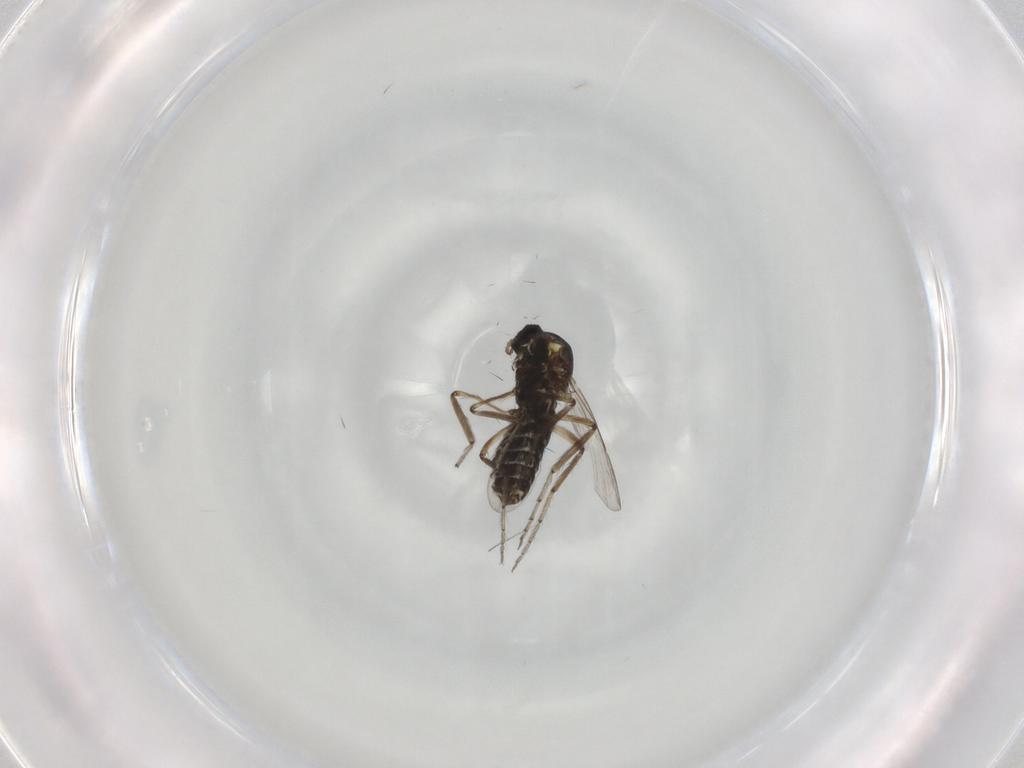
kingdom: Animalia
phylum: Arthropoda
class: Insecta
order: Diptera
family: Ceratopogonidae
